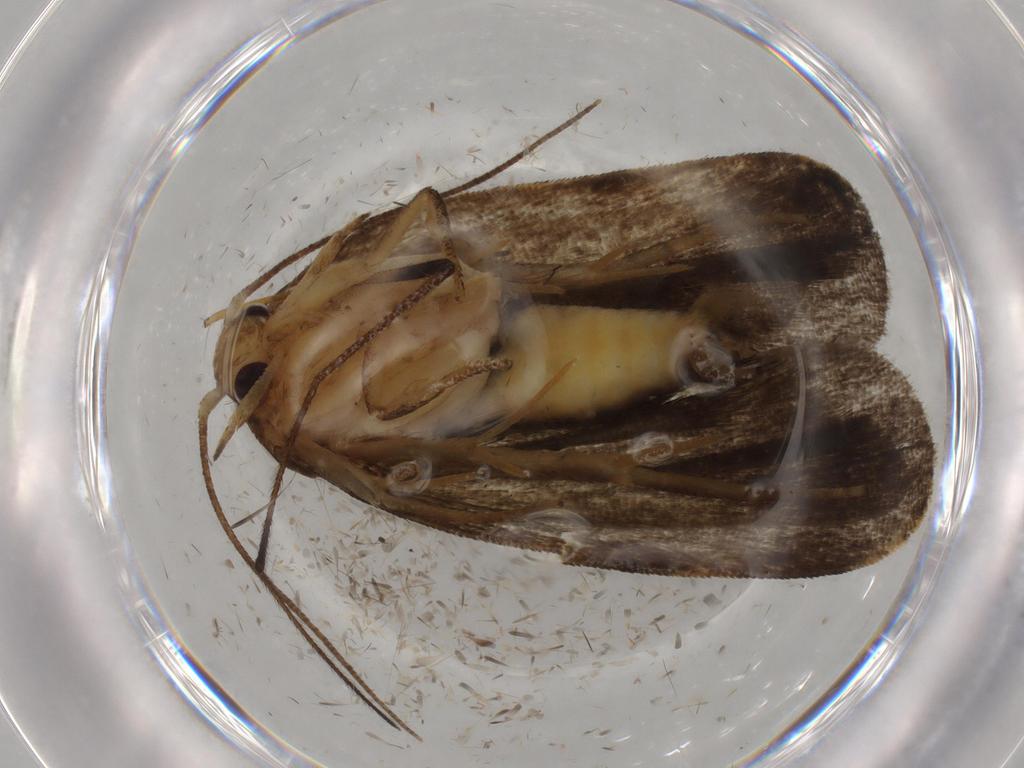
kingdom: Animalia
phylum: Arthropoda
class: Insecta
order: Lepidoptera
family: Depressariidae
